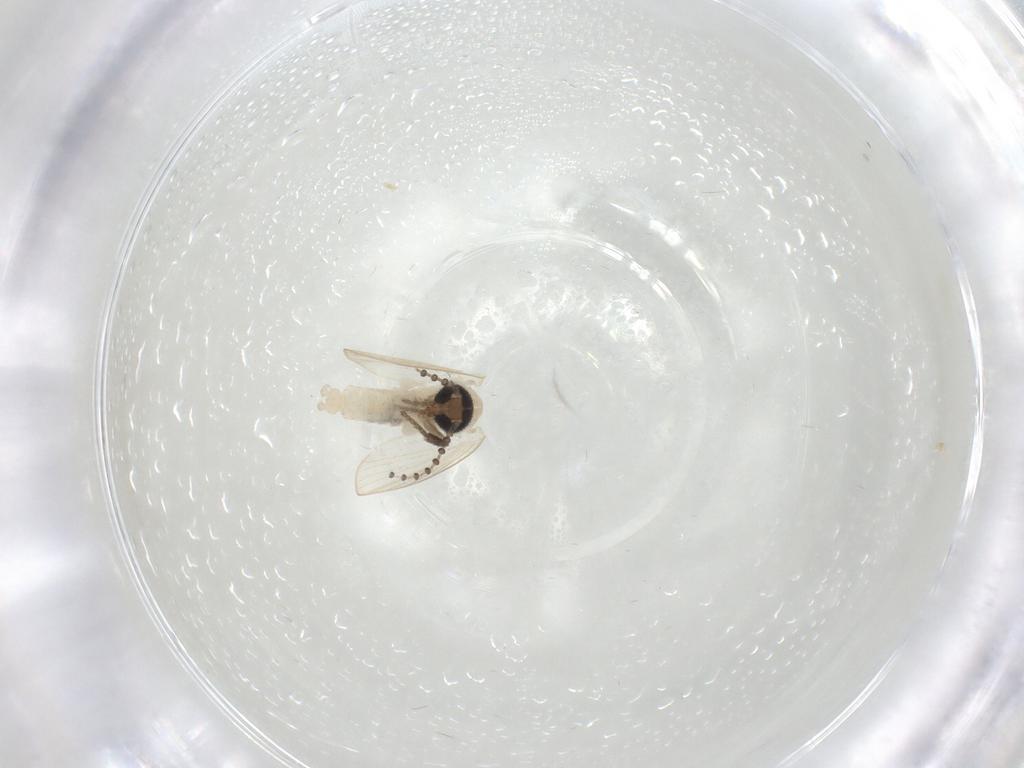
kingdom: Animalia
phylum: Arthropoda
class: Insecta
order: Diptera
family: Psychodidae
